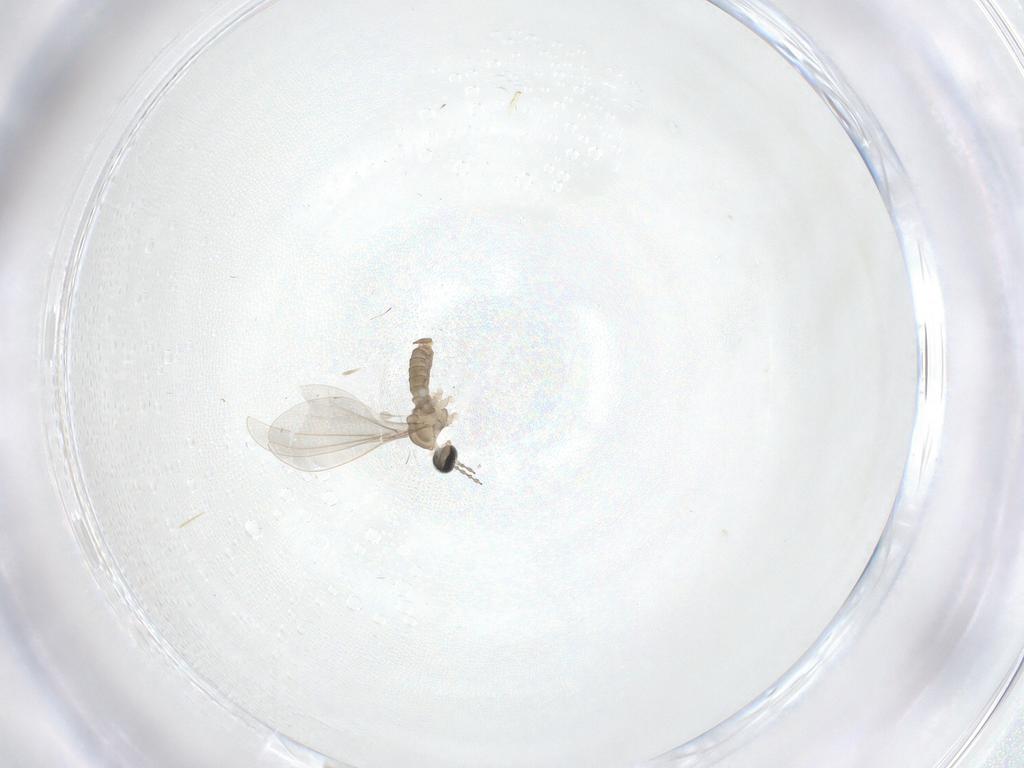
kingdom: Animalia
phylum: Arthropoda
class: Insecta
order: Diptera
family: Cecidomyiidae
